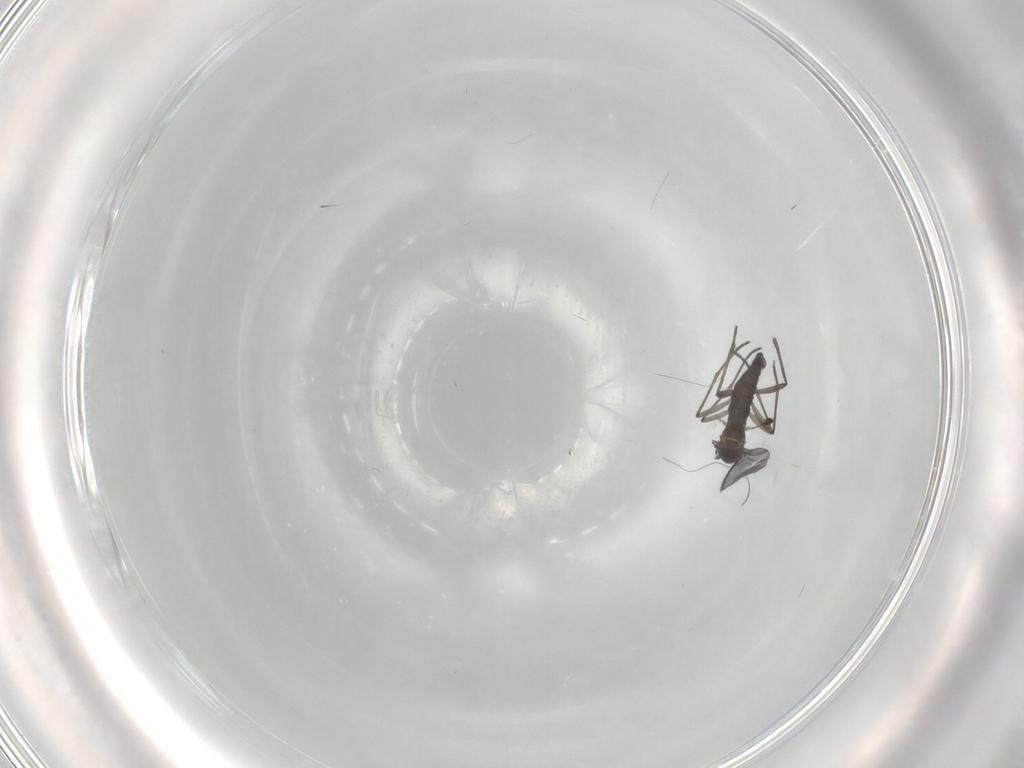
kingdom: Animalia
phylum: Arthropoda
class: Insecta
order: Diptera
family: Sciaridae
